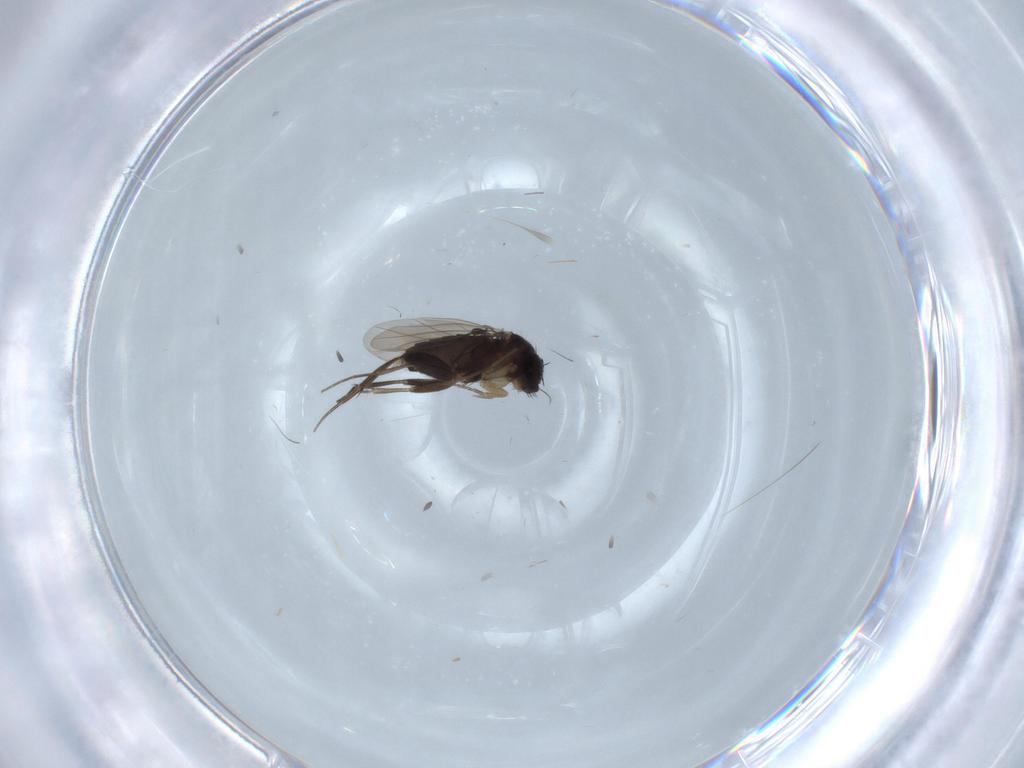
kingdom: Animalia
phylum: Arthropoda
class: Insecta
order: Diptera
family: Phoridae
